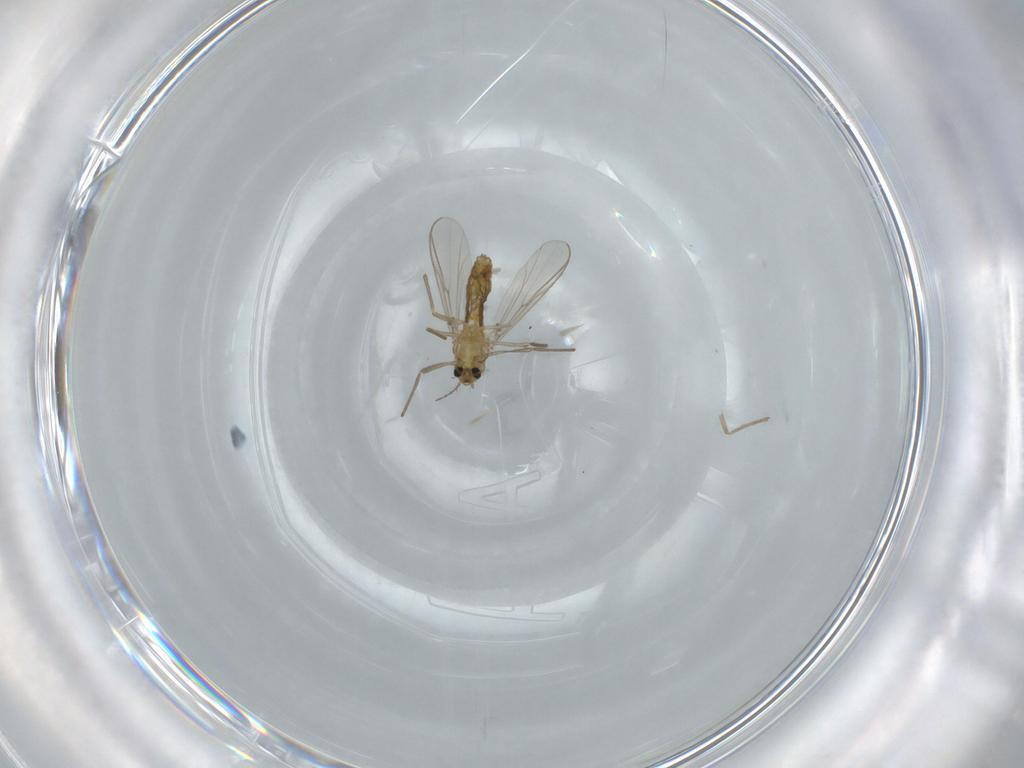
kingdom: Animalia
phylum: Arthropoda
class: Insecta
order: Diptera
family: Chironomidae
